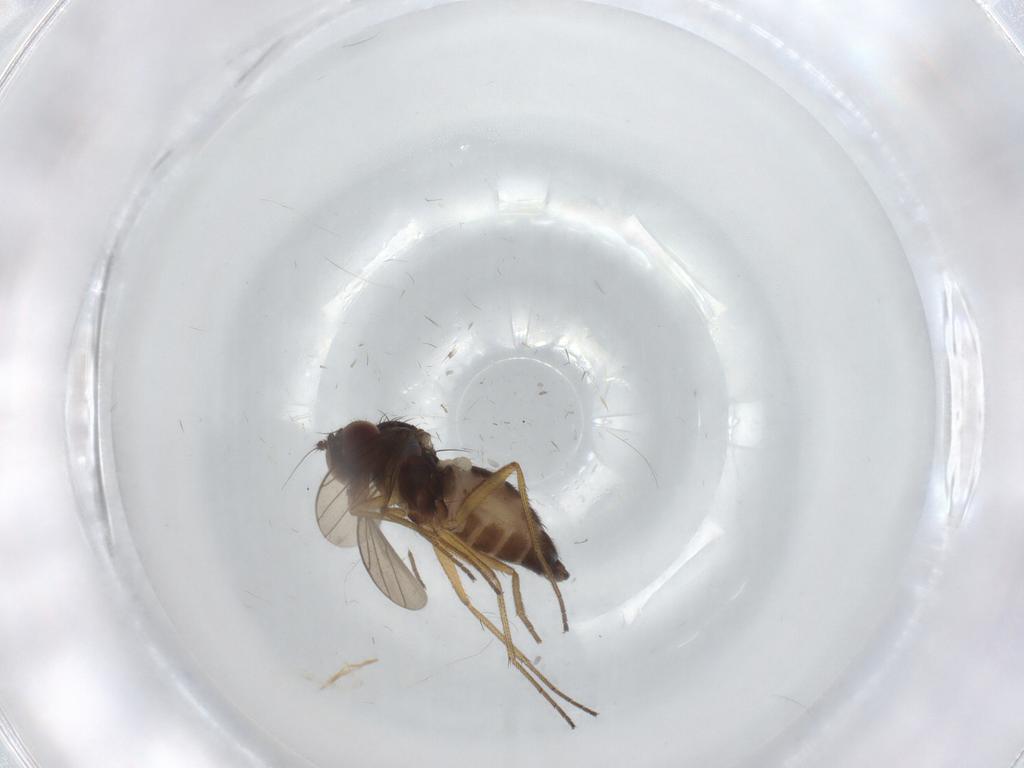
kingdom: Animalia
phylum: Arthropoda
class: Insecta
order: Diptera
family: Dolichopodidae
